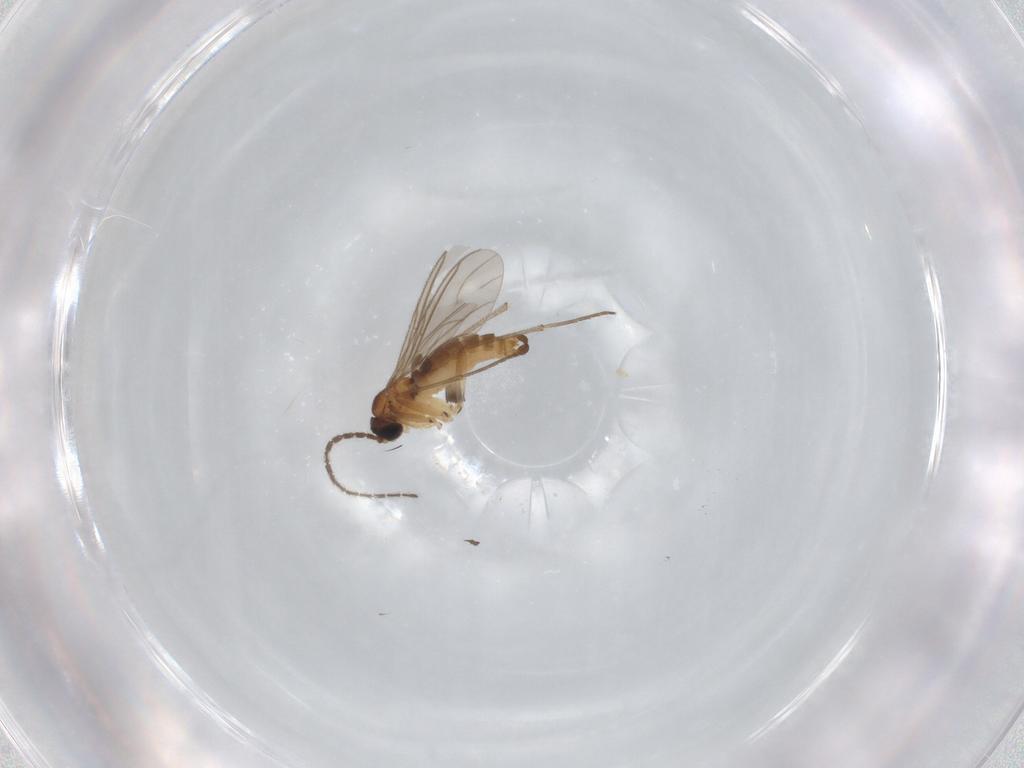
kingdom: Animalia
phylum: Arthropoda
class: Insecta
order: Diptera
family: Sciaridae
